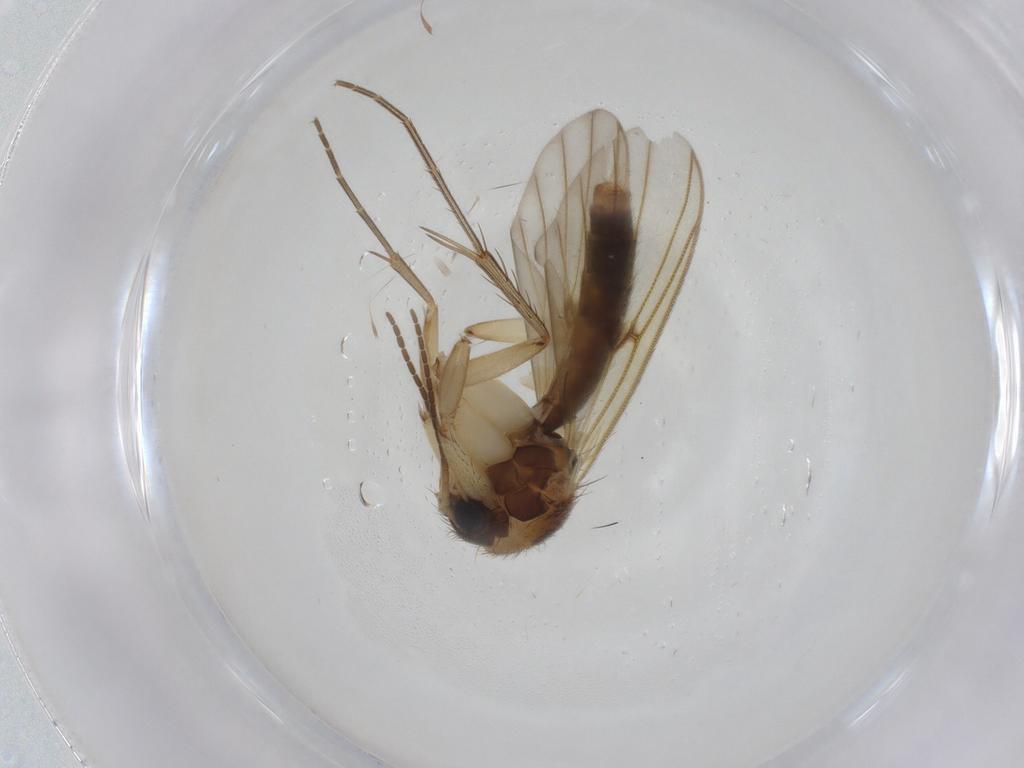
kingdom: Animalia
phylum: Arthropoda
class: Insecta
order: Diptera
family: Mycetophilidae
